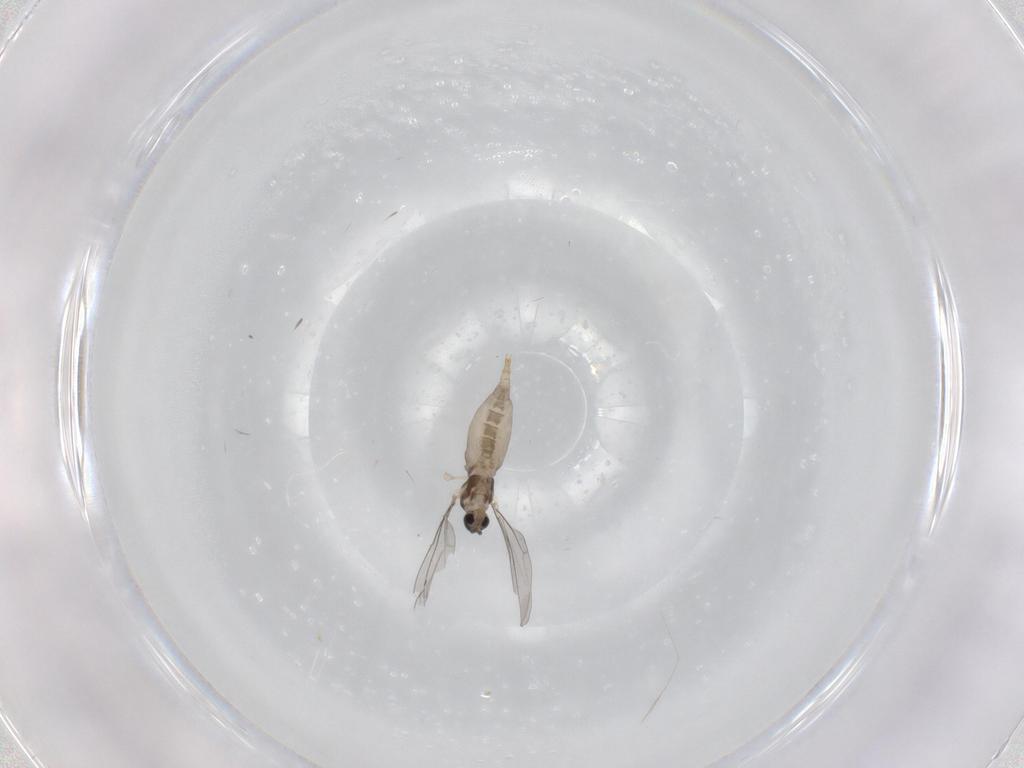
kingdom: Animalia
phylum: Arthropoda
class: Insecta
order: Diptera
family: Cecidomyiidae
